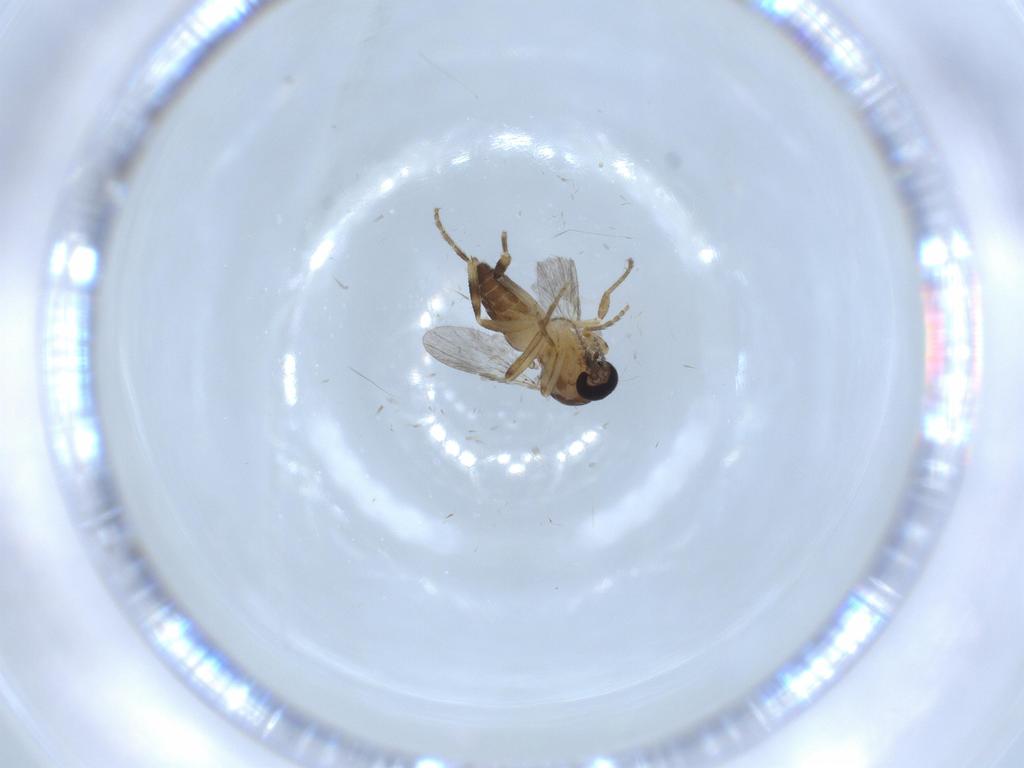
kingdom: Animalia
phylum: Arthropoda
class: Insecta
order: Diptera
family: Ceratopogonidae
